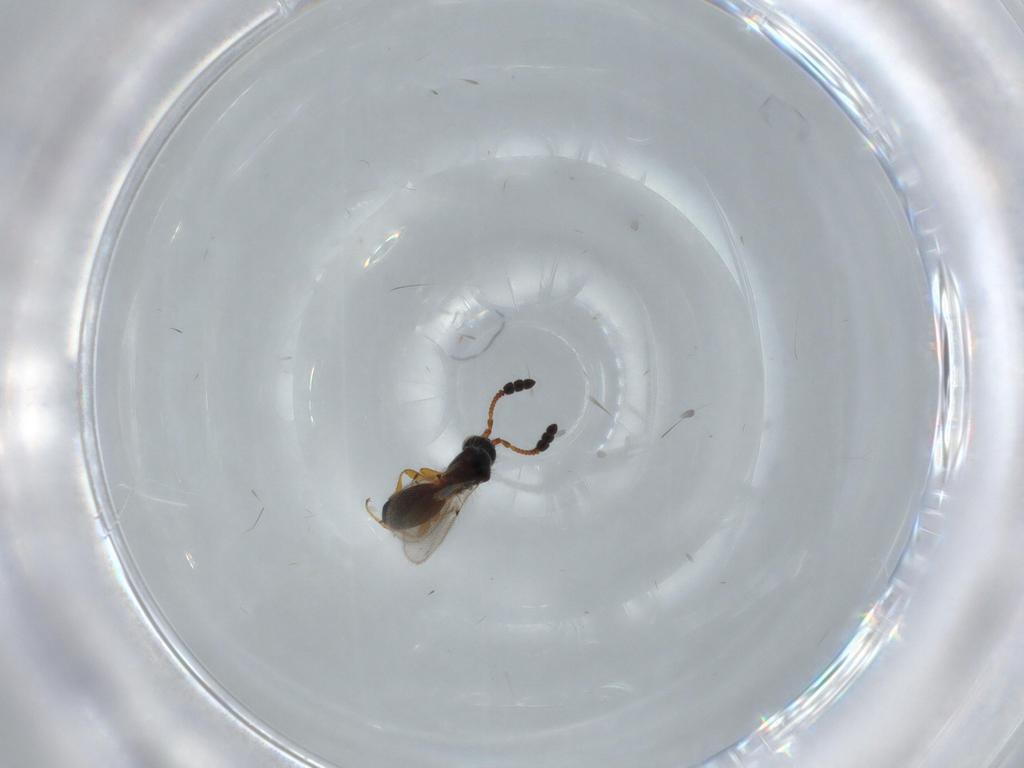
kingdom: Animalia
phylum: Arthropoda
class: Insecta
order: Hymenoptera
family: Diapriidae
